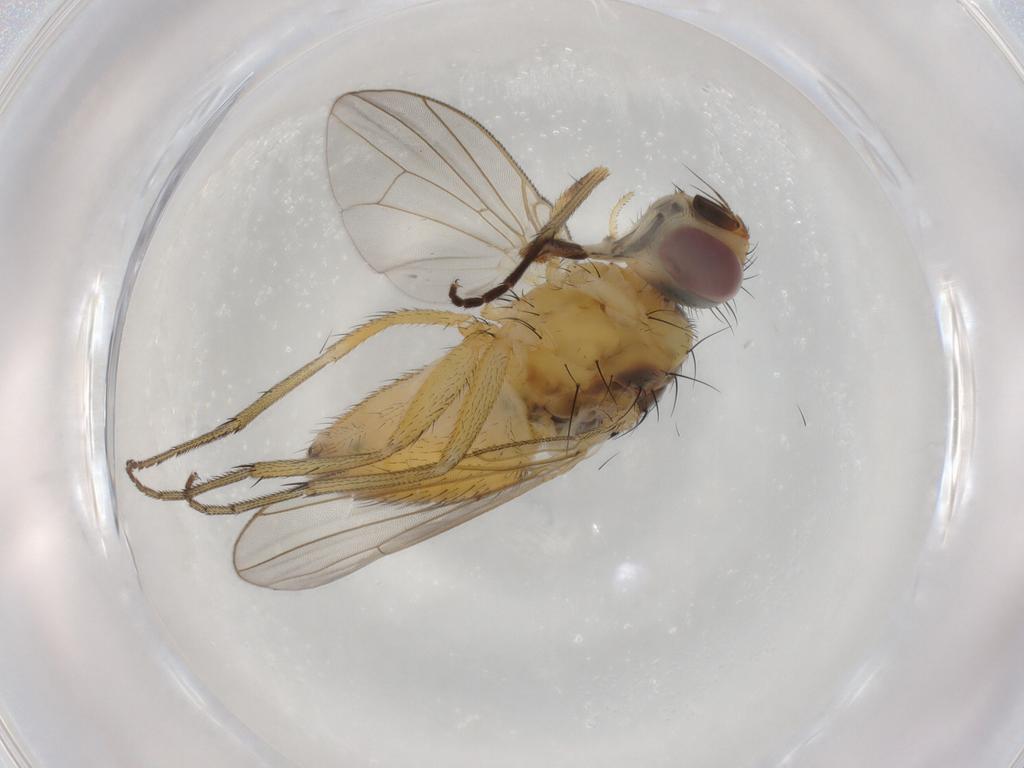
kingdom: Animalia
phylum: Arthropoda
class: Insecta
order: Diptera
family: Muscidae
